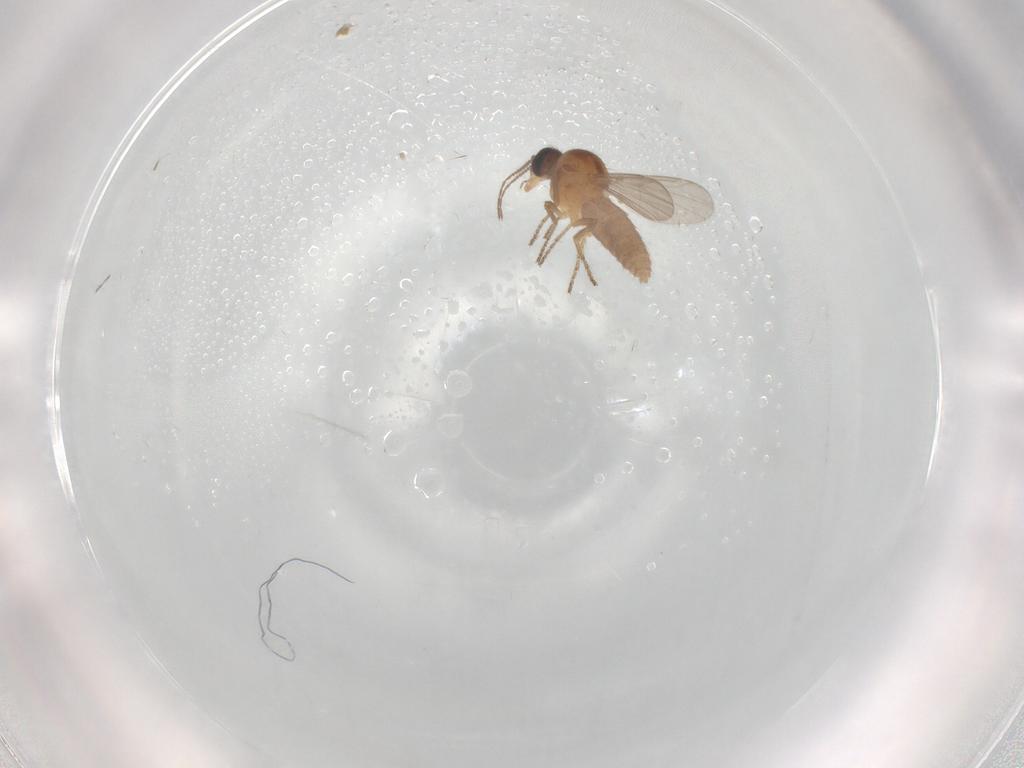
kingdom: Animalia
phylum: Arthropoda
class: Insecta
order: Diptera
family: Ceratopogonidae
